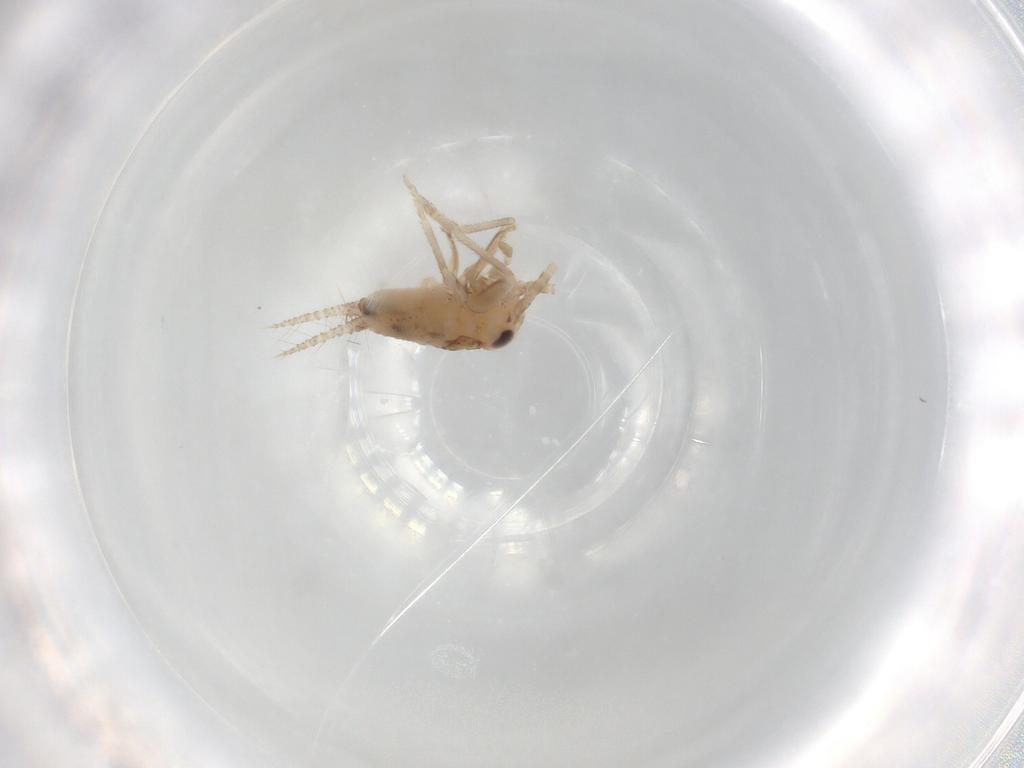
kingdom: Animalia
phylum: Arthropoda
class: Insecta
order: Orthoptera
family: Trigonidiidae
